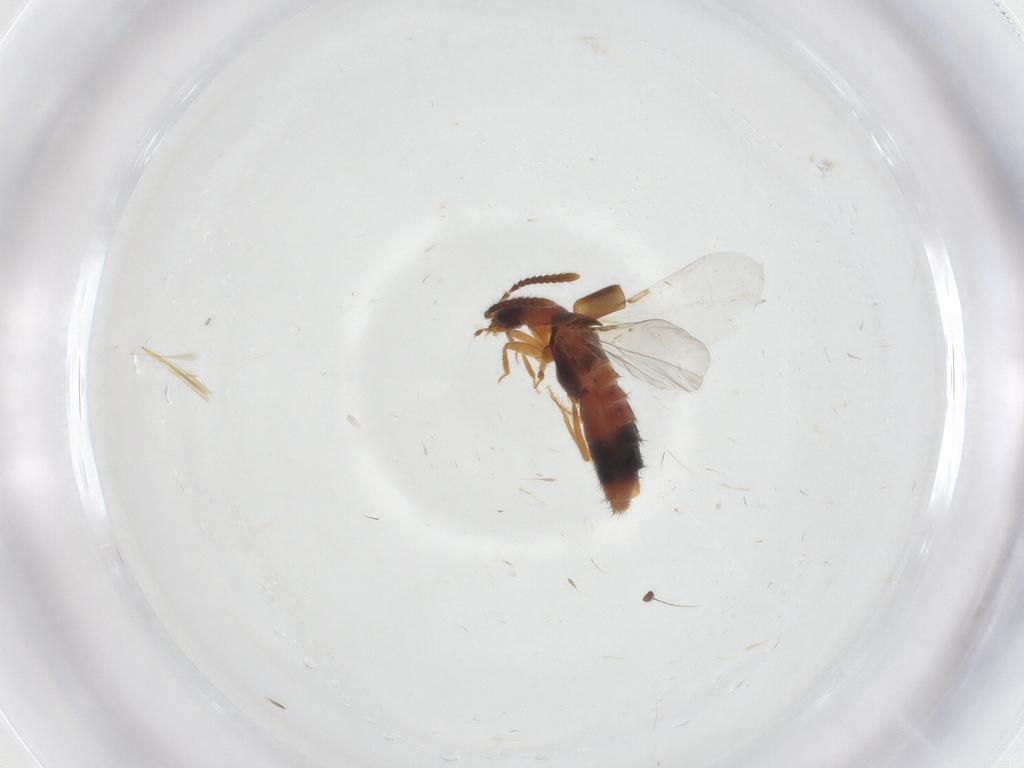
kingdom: Animalia
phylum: Arthropoda
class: Insecta
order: Coleoptera
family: Staphylinidae
